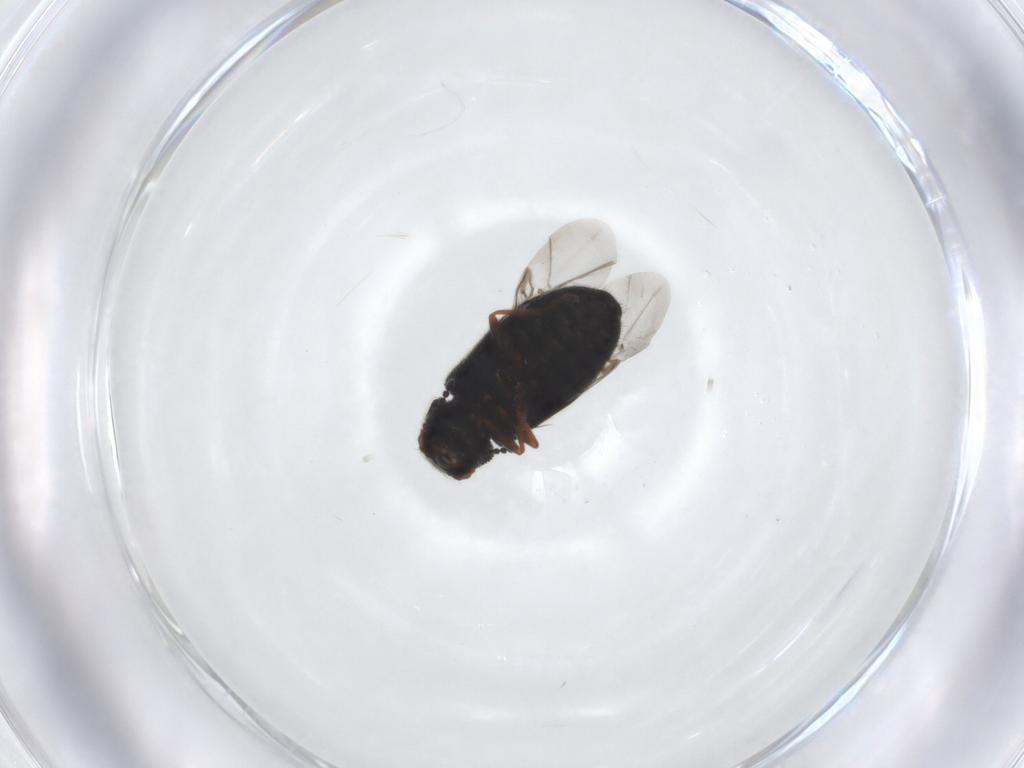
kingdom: Animalia
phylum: Arthropoda
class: Insecta
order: Coleoptera
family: Melyridae
